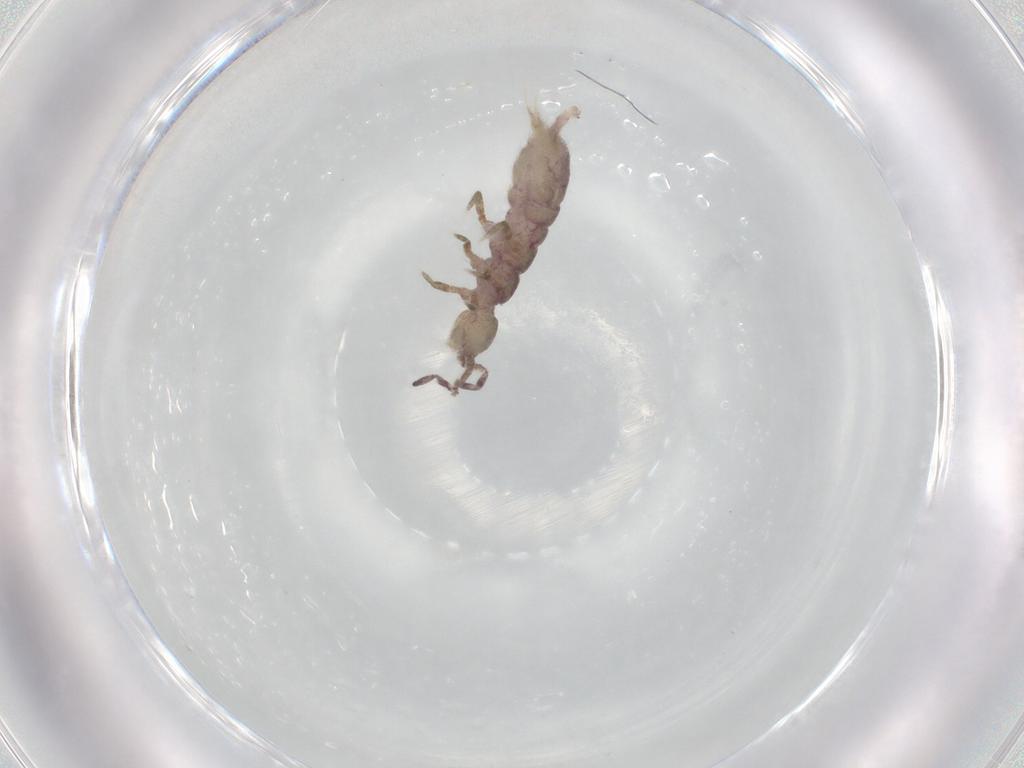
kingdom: Animalia
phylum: Arthropoda
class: Collembola
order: Entomobryomorpha
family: Isotomidae
